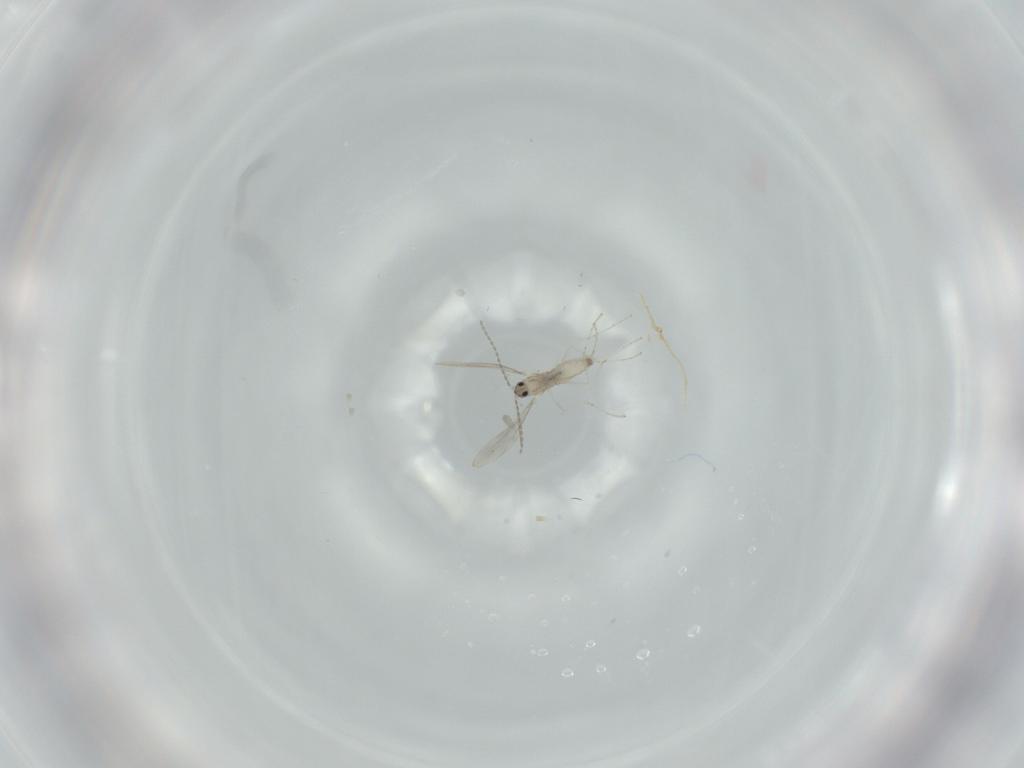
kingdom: Animalia
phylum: Arthropoda
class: Insecta
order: Diptera
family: Cecidomyiidae
